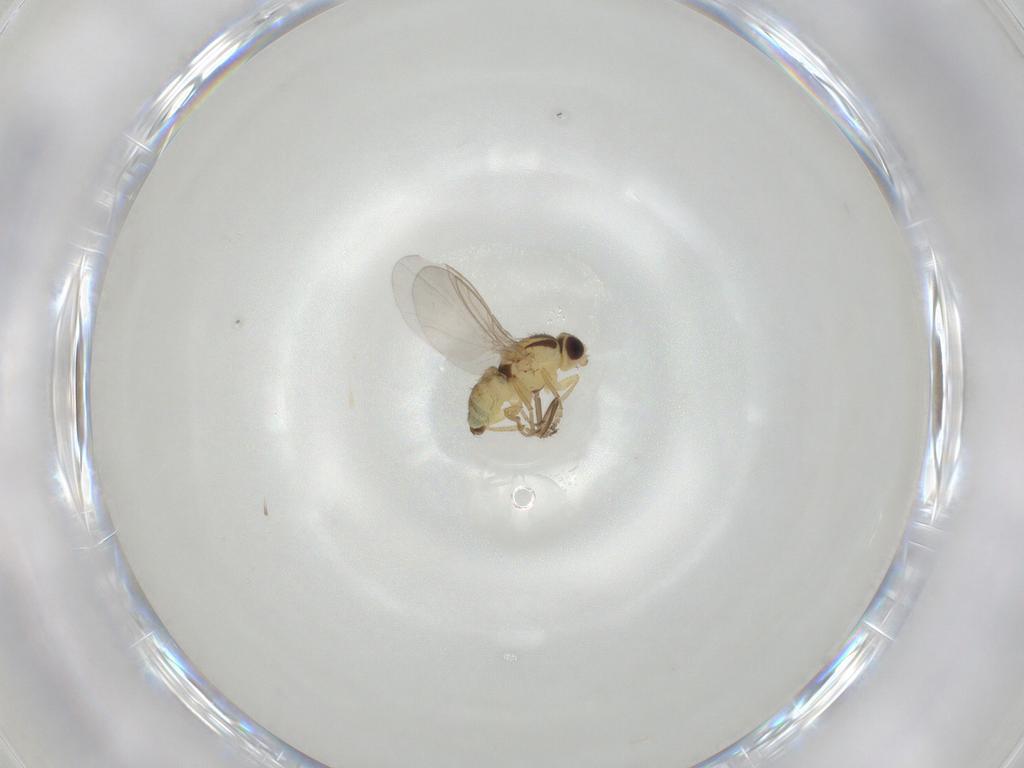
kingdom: Animalia
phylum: Arthropoda
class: Insecta
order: Diptera
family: Agromyzidae
